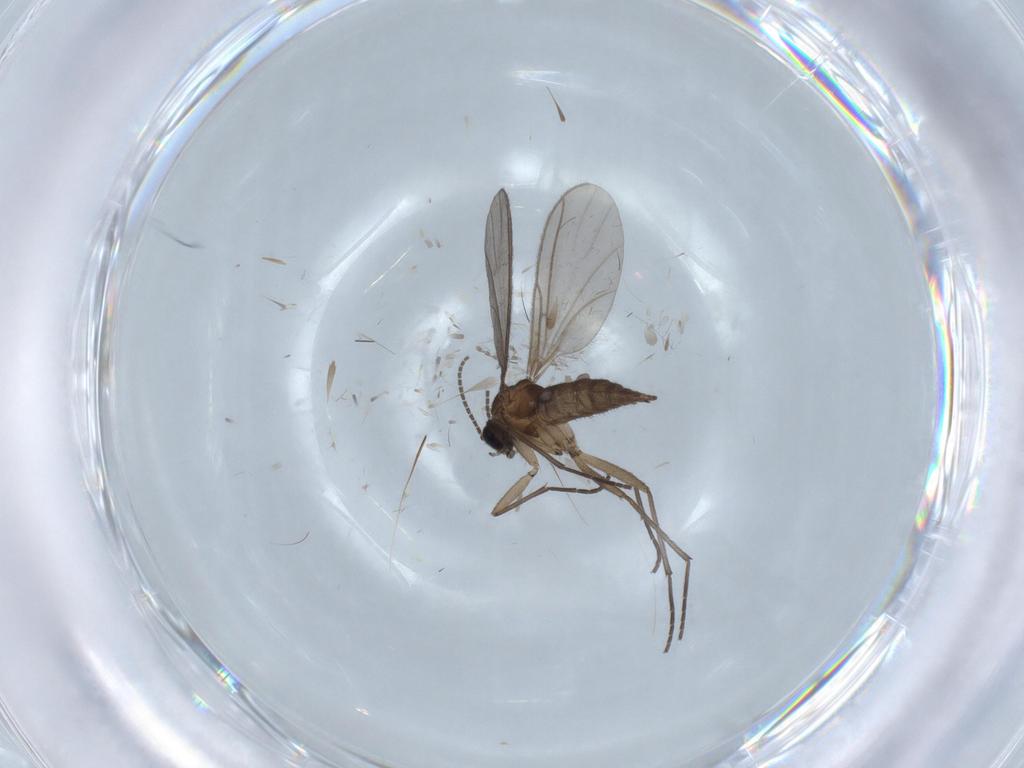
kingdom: Animalia
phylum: Arthropoda
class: Insecta
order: Diptera
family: Sciaridae
